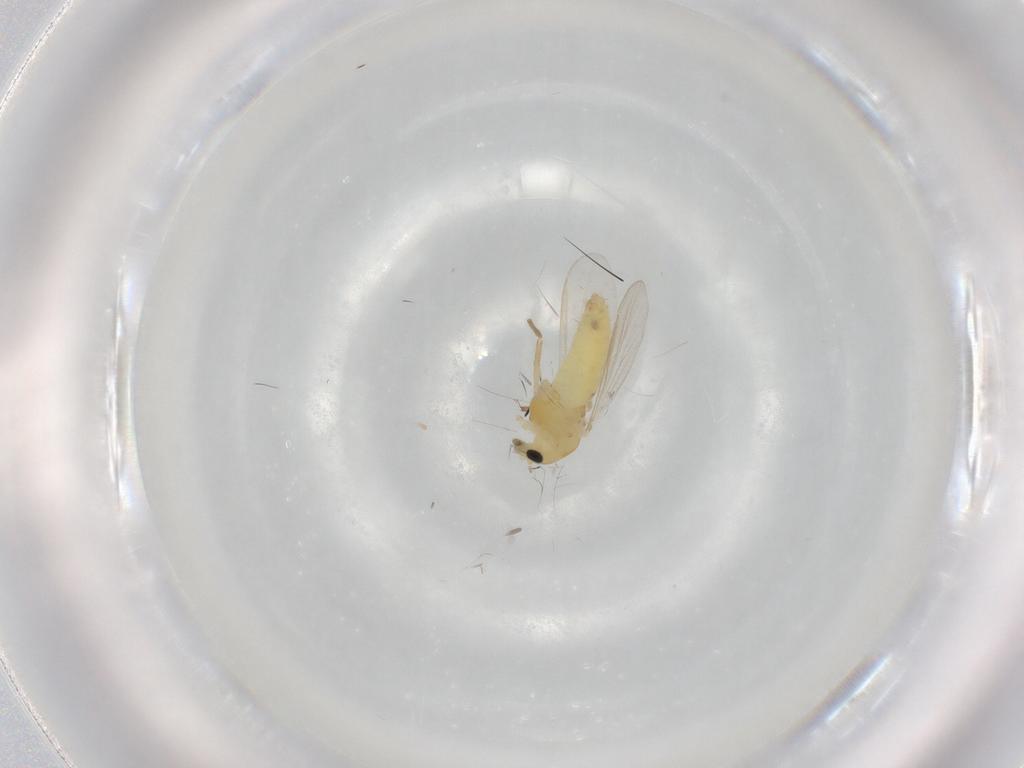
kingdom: Animalia
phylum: Arthropoda
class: Insecta
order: Diptera
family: Chironomidae
